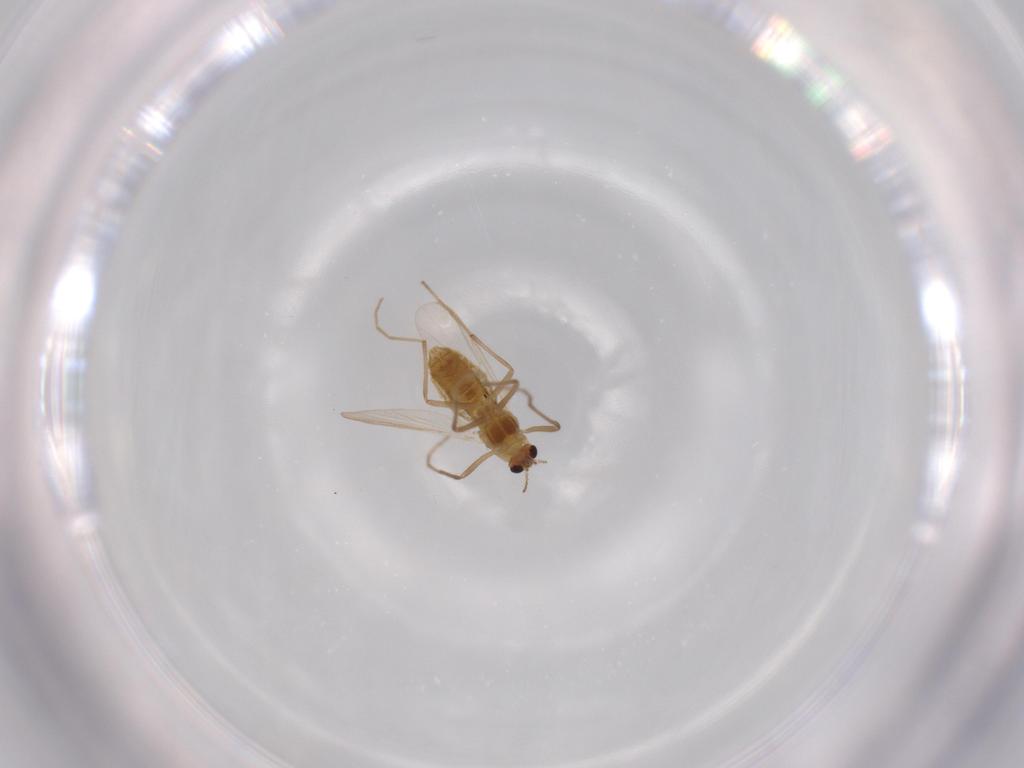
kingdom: Animalia
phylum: Arthropoda
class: Insecta
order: Diptera
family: Chironomidae
